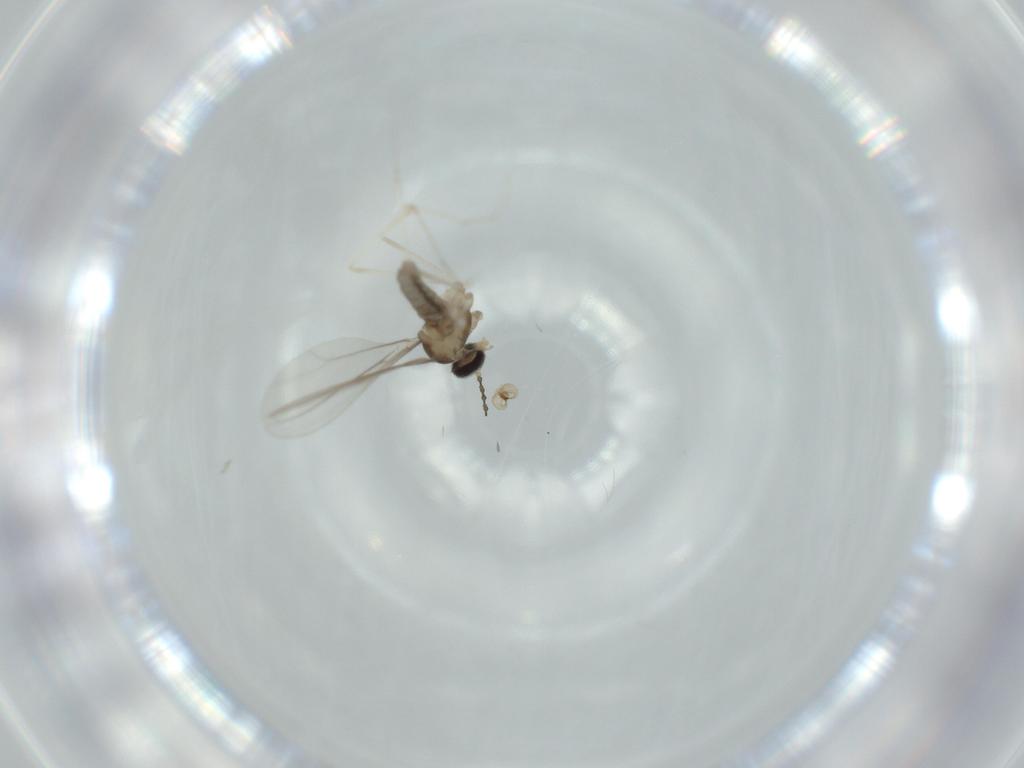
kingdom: Animalia
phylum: Arthropoda
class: Insecta
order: Diptera
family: Cecidomyiidae
